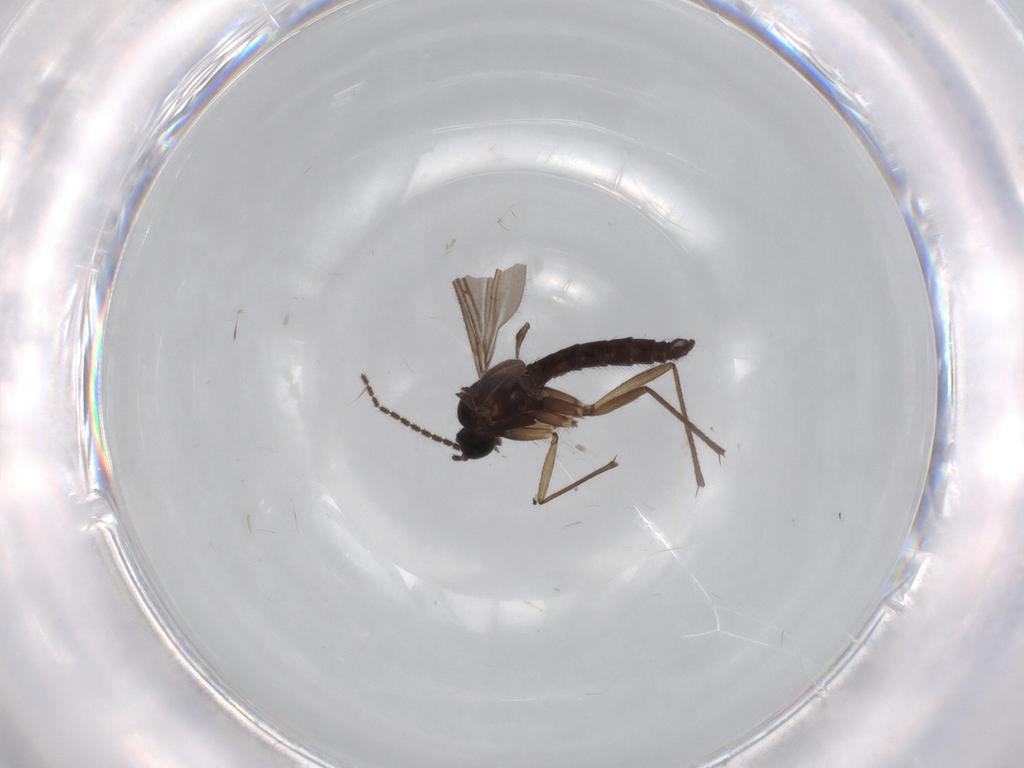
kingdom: Animalia
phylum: Arthropoda
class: Insecta
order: Diptera
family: Sciaridae
